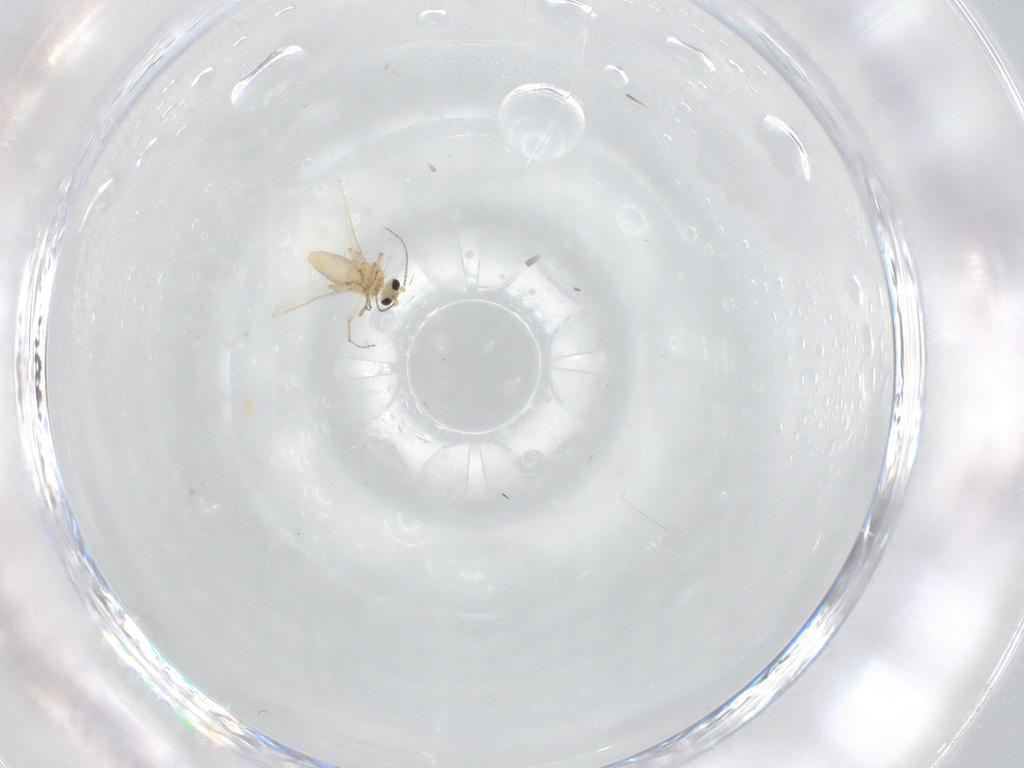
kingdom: Animalia
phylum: Arthropoda
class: Insecta
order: Diptera
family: Ceratopogonidae
